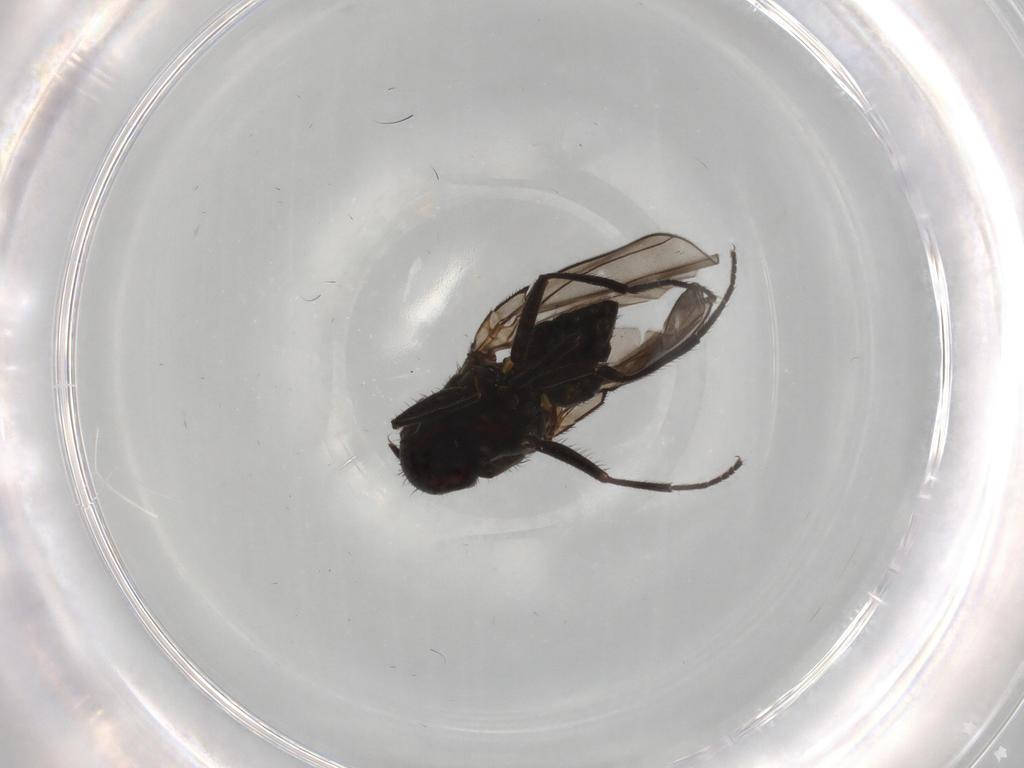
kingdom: Animalia
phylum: Arthropoda
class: Insecta
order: Diptera
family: Ephydridae
